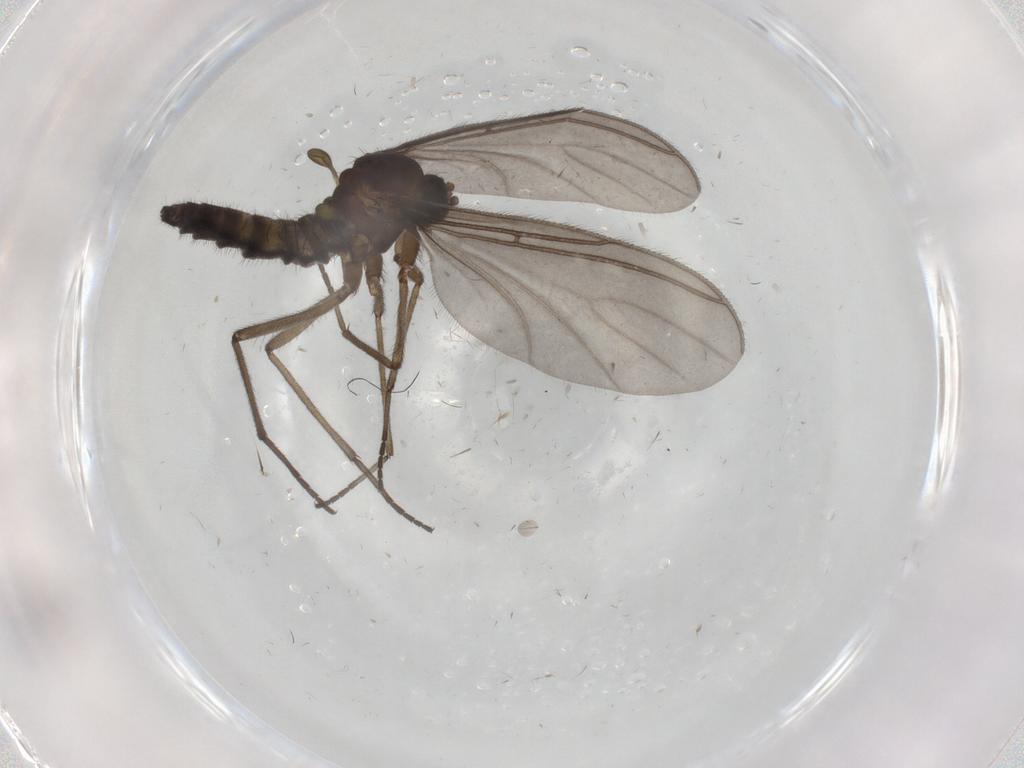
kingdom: Animalia
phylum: Arthropoda
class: Insecta
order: Diptera
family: Sciaridae
